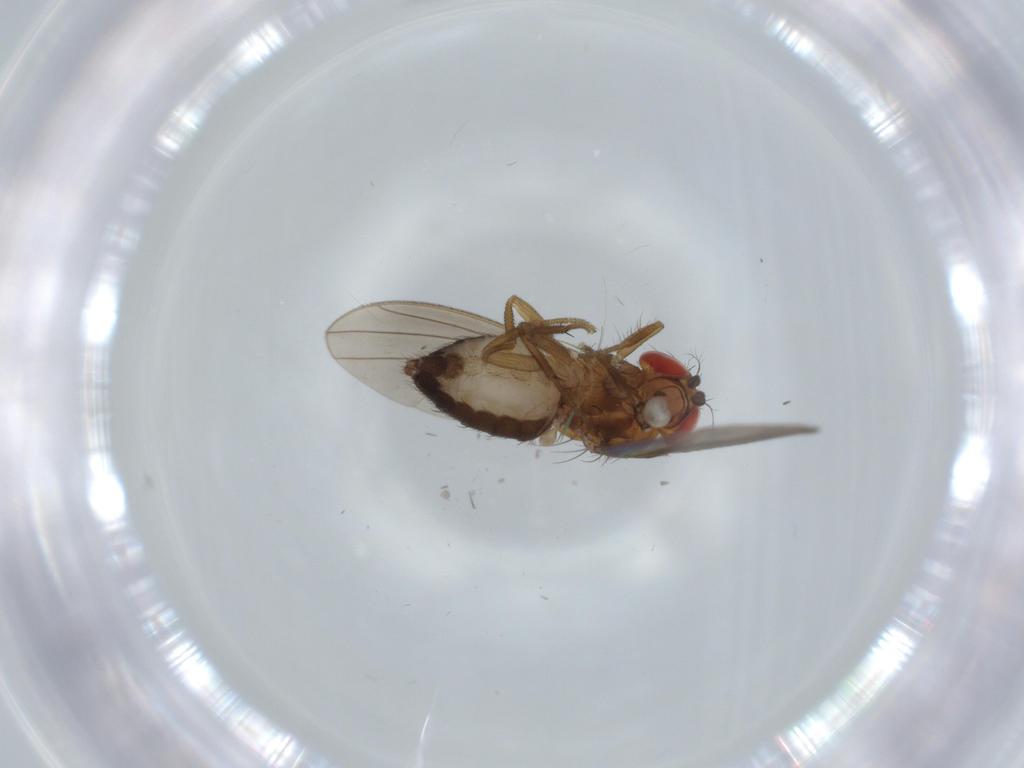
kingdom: Animalia
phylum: Arthropoda
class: Insecta
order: Diptera
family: Drosophilidae
